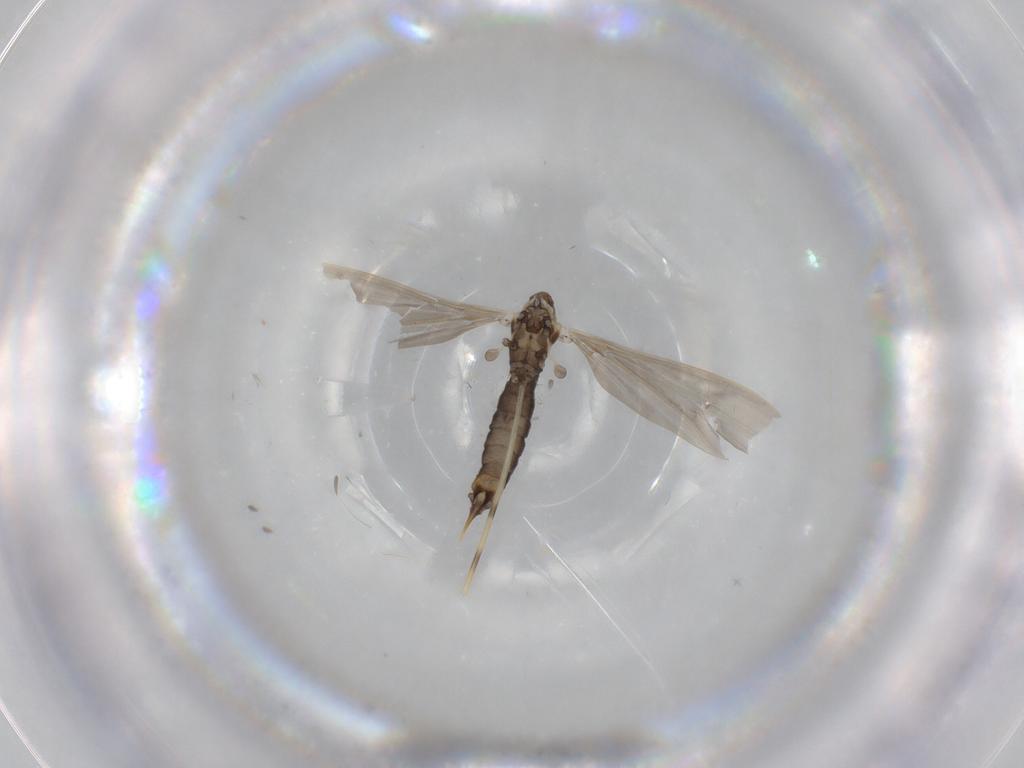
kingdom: Animalia
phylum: Arthropoda
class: Insecta
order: Diptera
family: Limoniidae
